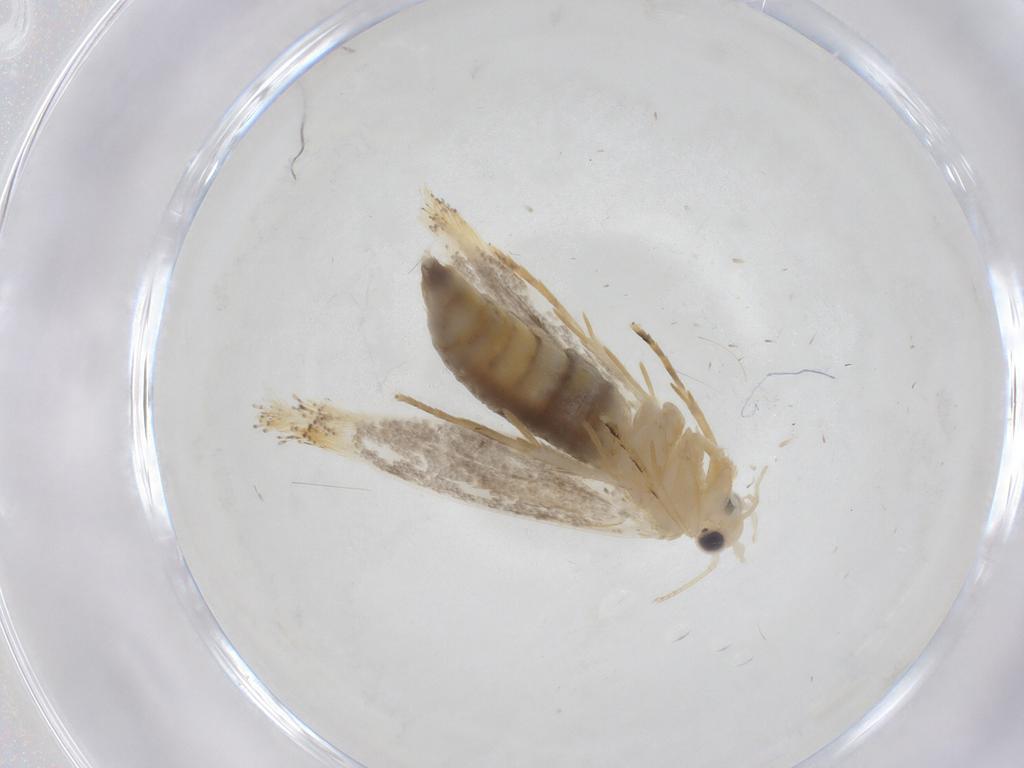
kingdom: Animalia
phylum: Arthropoda
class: Insecta
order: Lepidoptera
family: Tineidae
